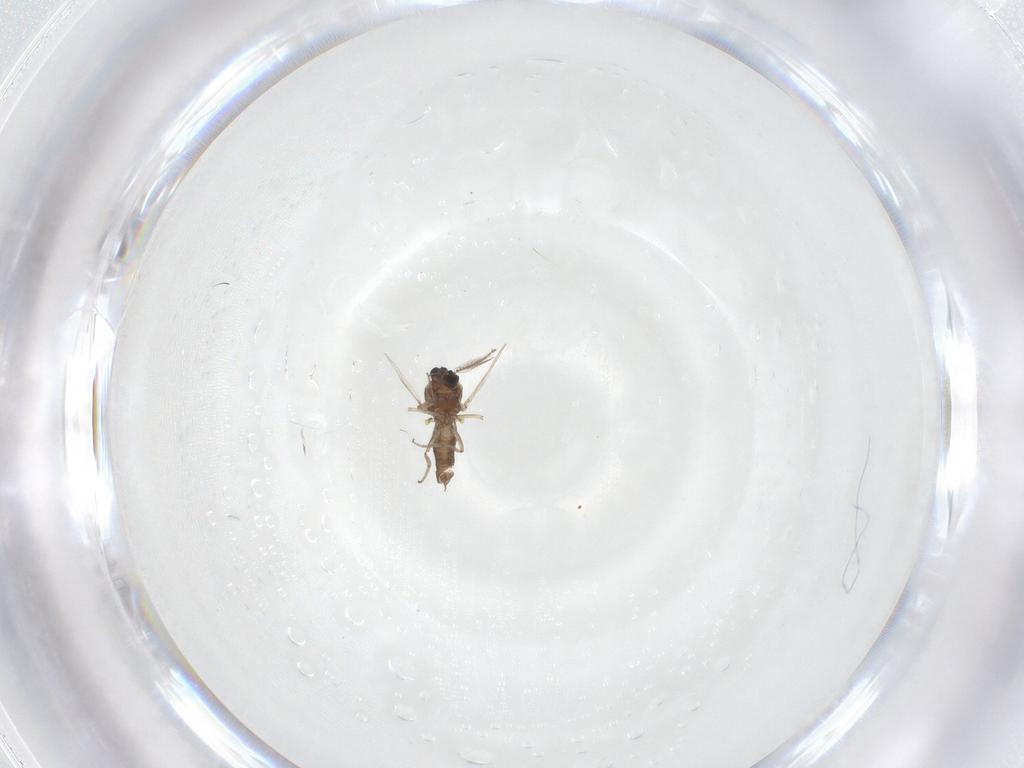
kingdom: Animalia
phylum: Arthropoda
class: Insecta
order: Diptera
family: Ceratopogonidae
